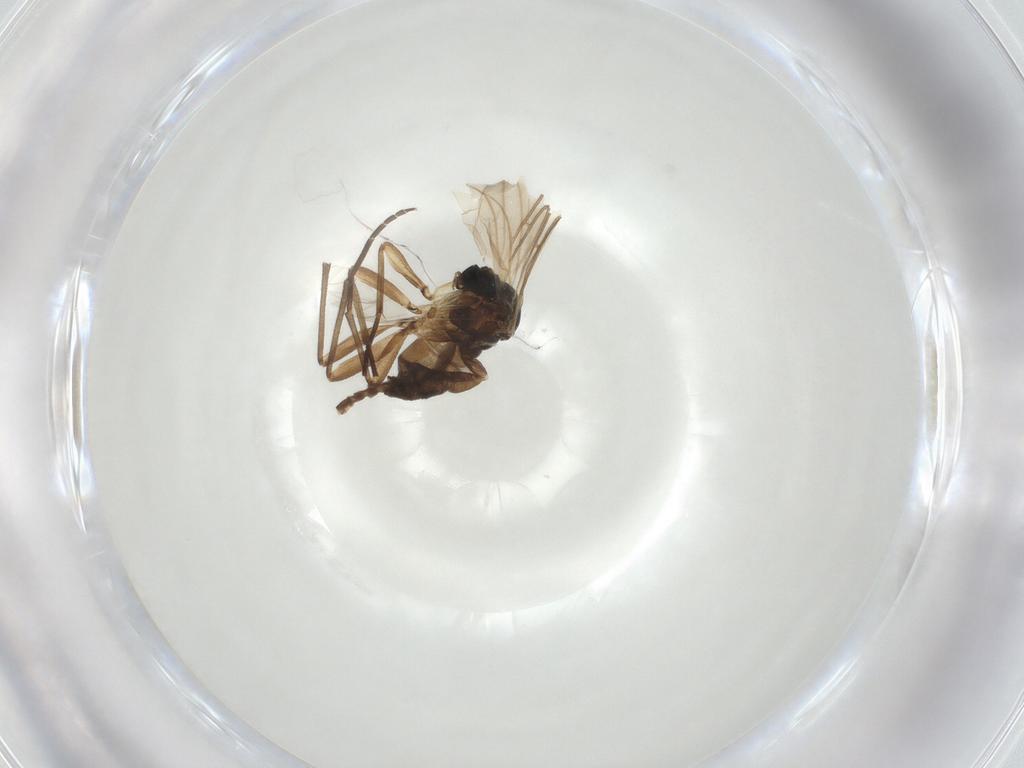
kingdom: Animalia
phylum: Arthropoda
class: Insecta
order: Diptera
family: Sciaridae
